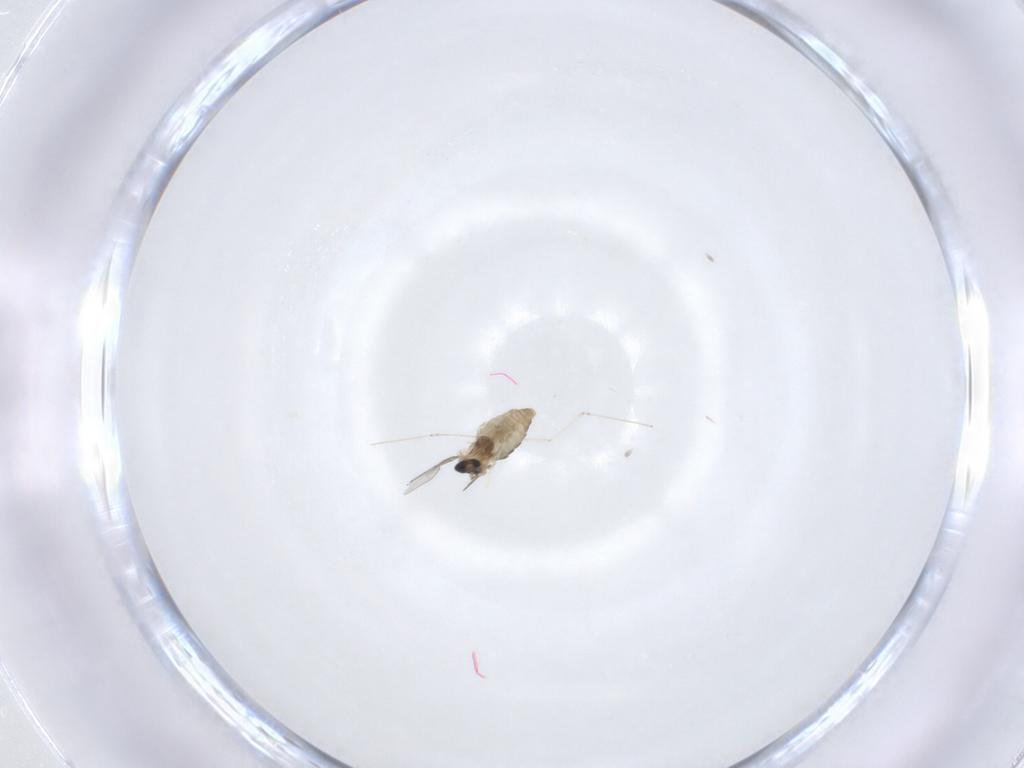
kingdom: Animalia
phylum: Arthropoda
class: Insecta
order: Diptera
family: Cecidomyiidae
